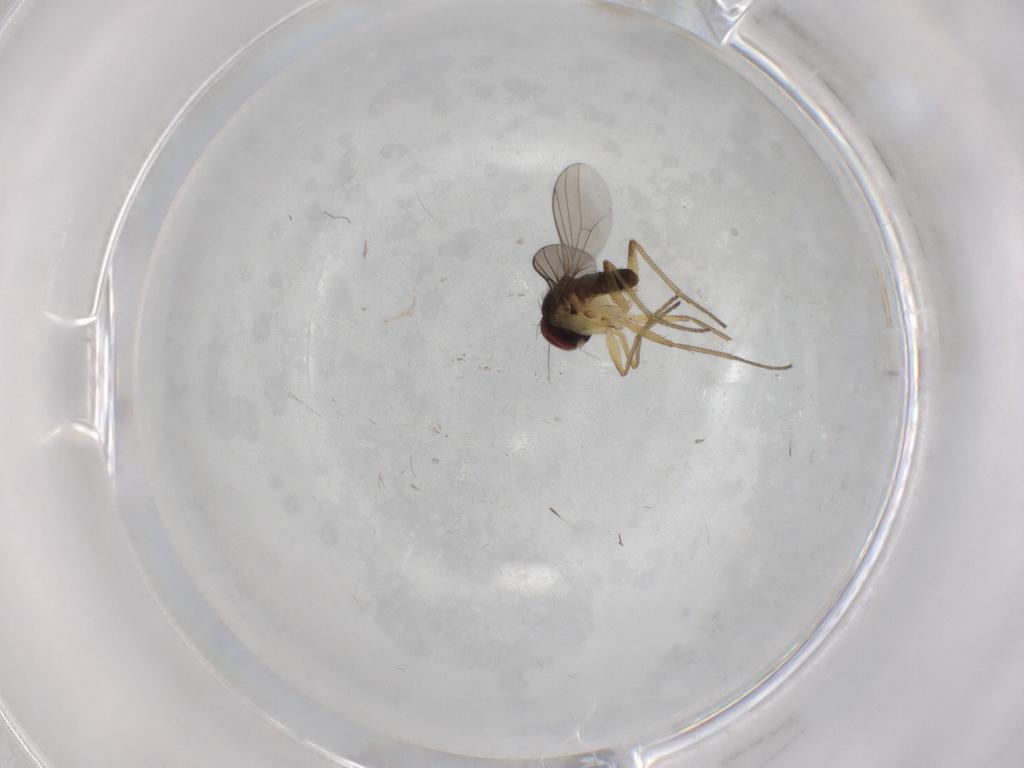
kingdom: Animalia
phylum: Arthropoda
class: Insecta
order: Diptera
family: Dolichopodidae
